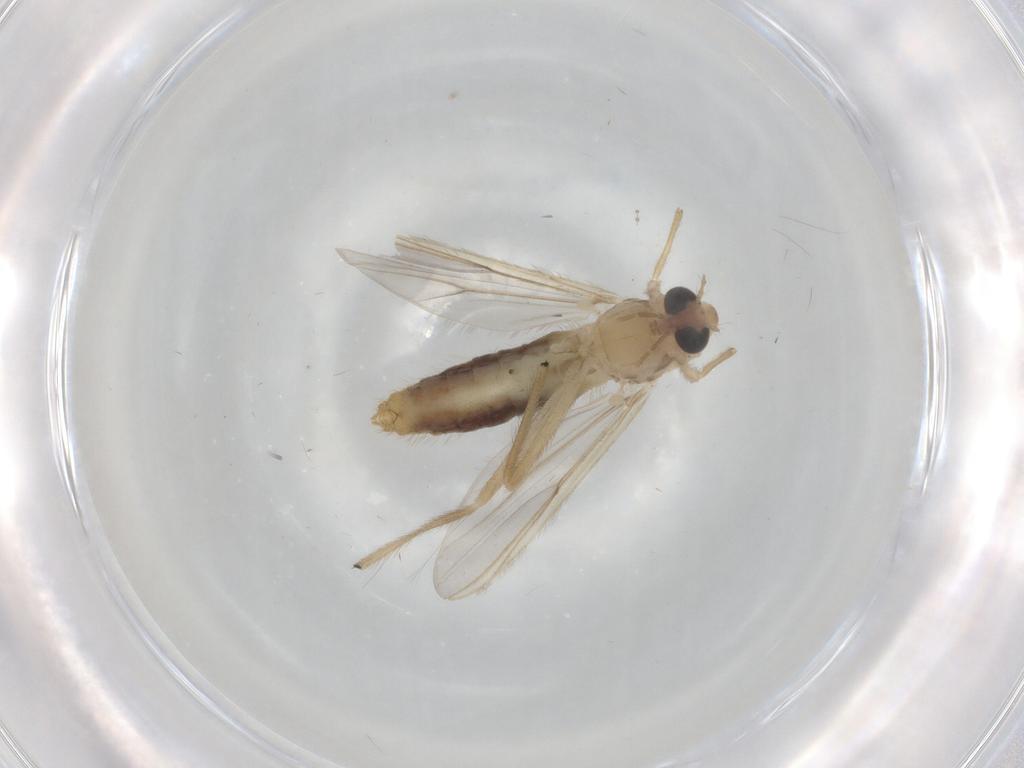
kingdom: Animalia
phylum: Arthropoda
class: Insecta
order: Diptera
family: Chironomidae
